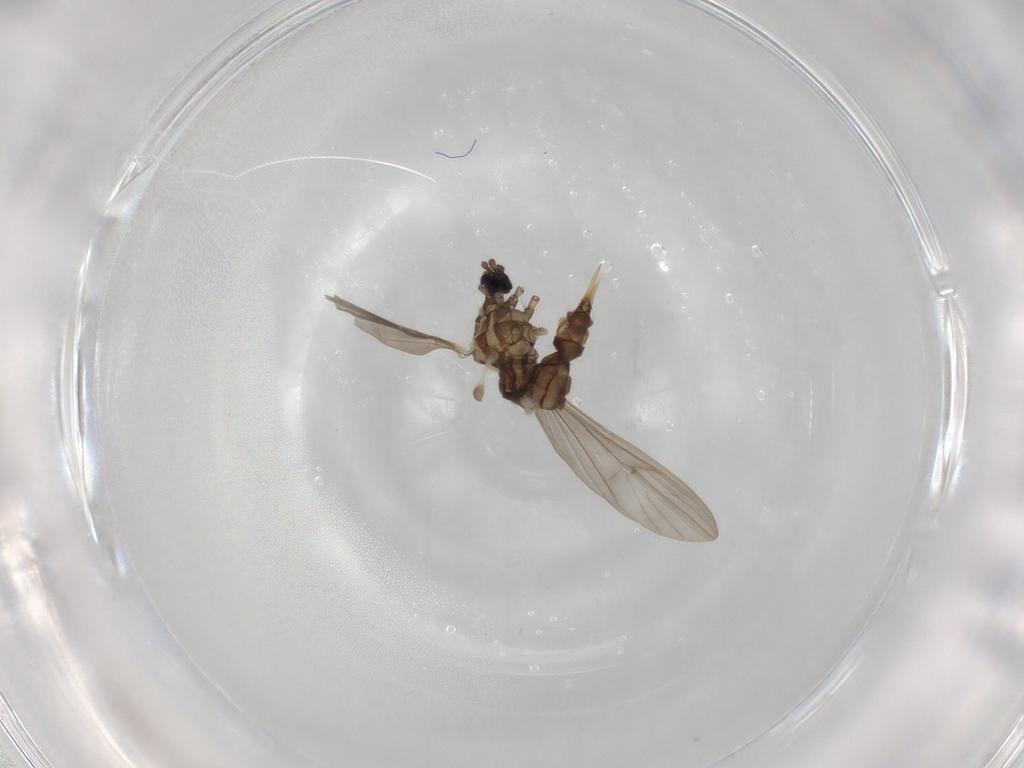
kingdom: Animalia
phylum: Arthropoda
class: Insecta
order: Diptera
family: Limoniidae
